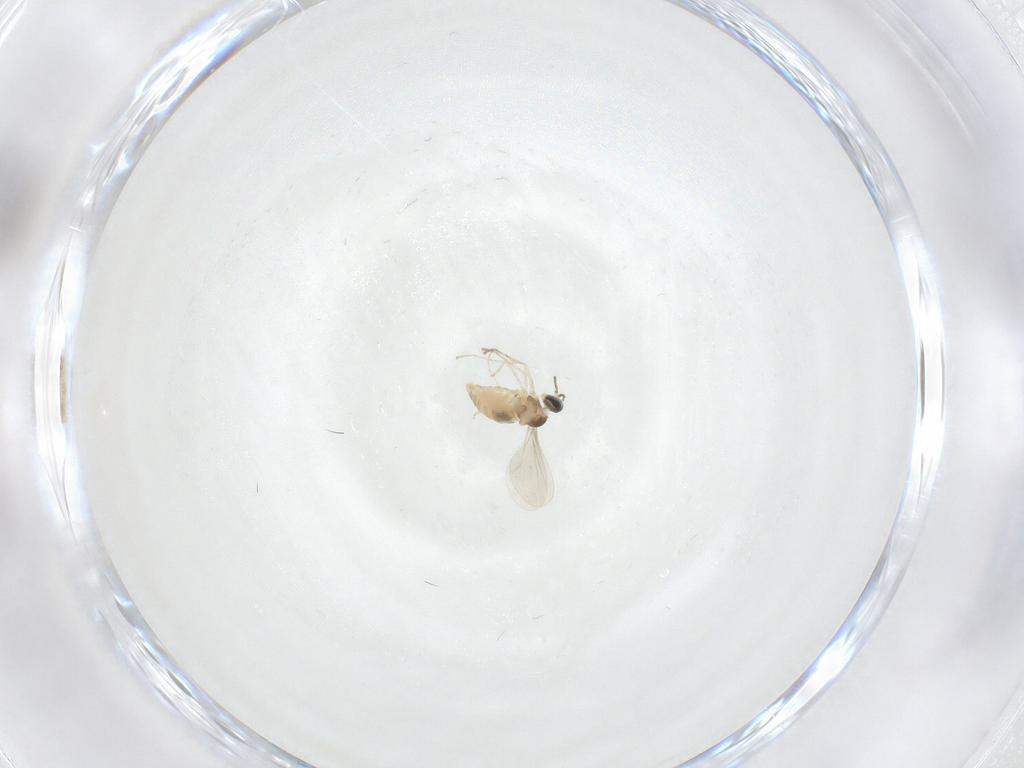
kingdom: Animalia
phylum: Arthropoda
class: Insecta
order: Diptera
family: Cecidomyiidae
